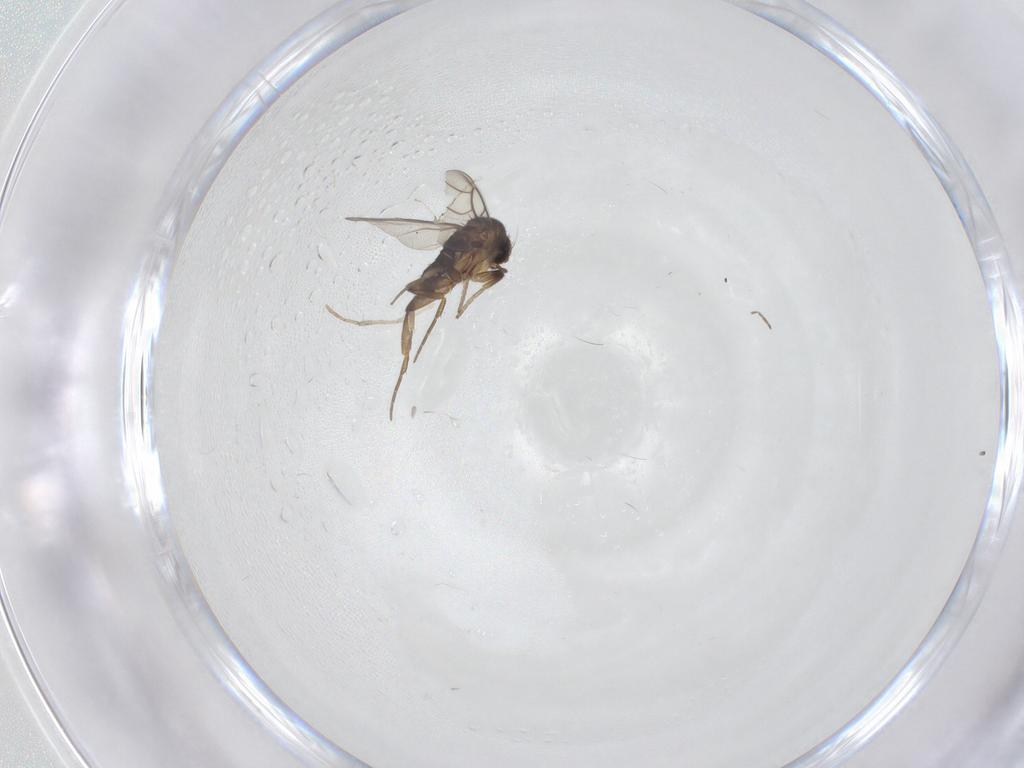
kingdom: Animalia
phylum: Arthropoda
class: Insecta
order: Diptera
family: Phoridae
